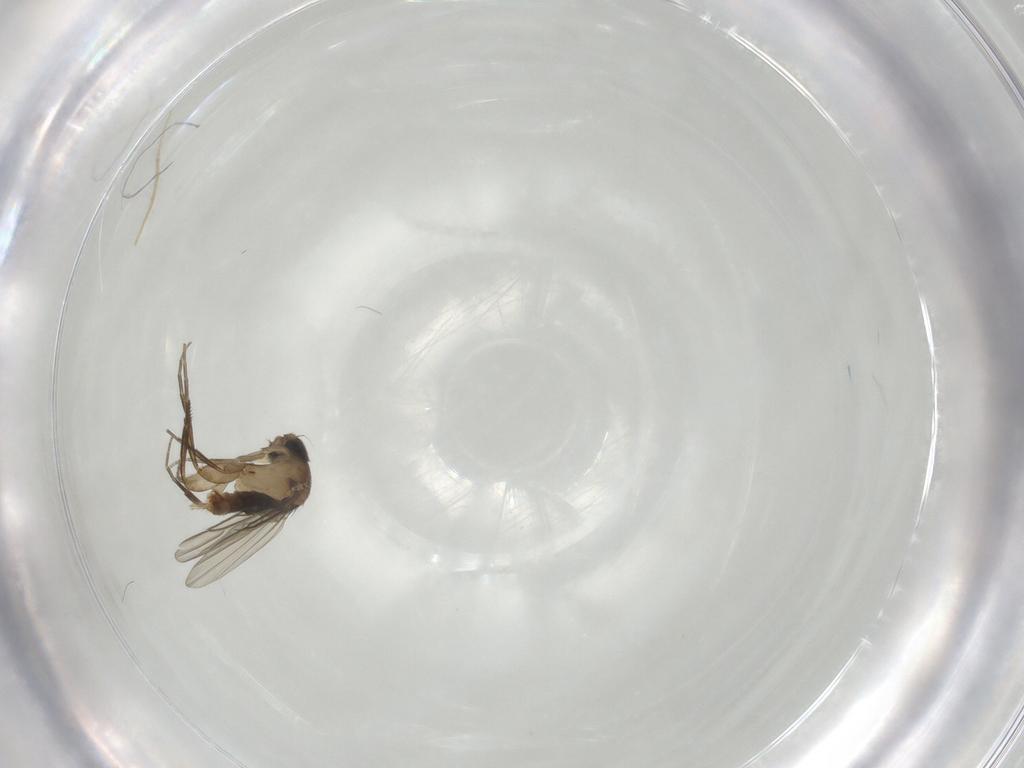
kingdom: Animalia
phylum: Arthropoda
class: Insecta
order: Diptera
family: Phoridae
